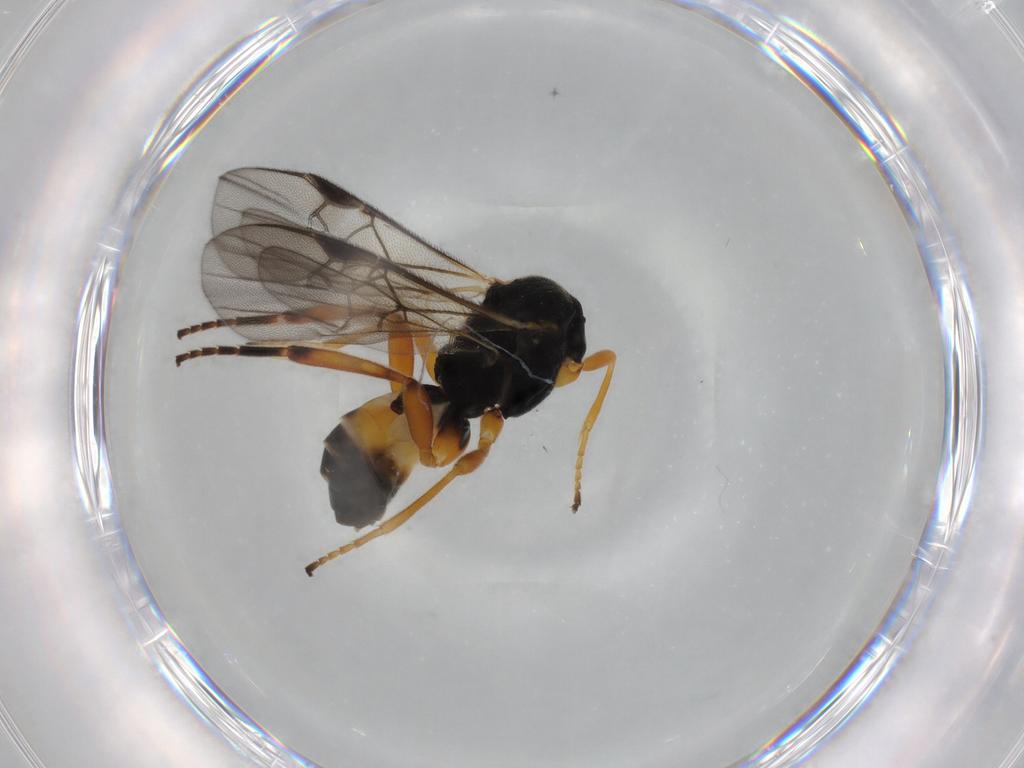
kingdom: Animalia
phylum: Arthropoda
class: Insecta
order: Hymenoptera
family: Braconidae
